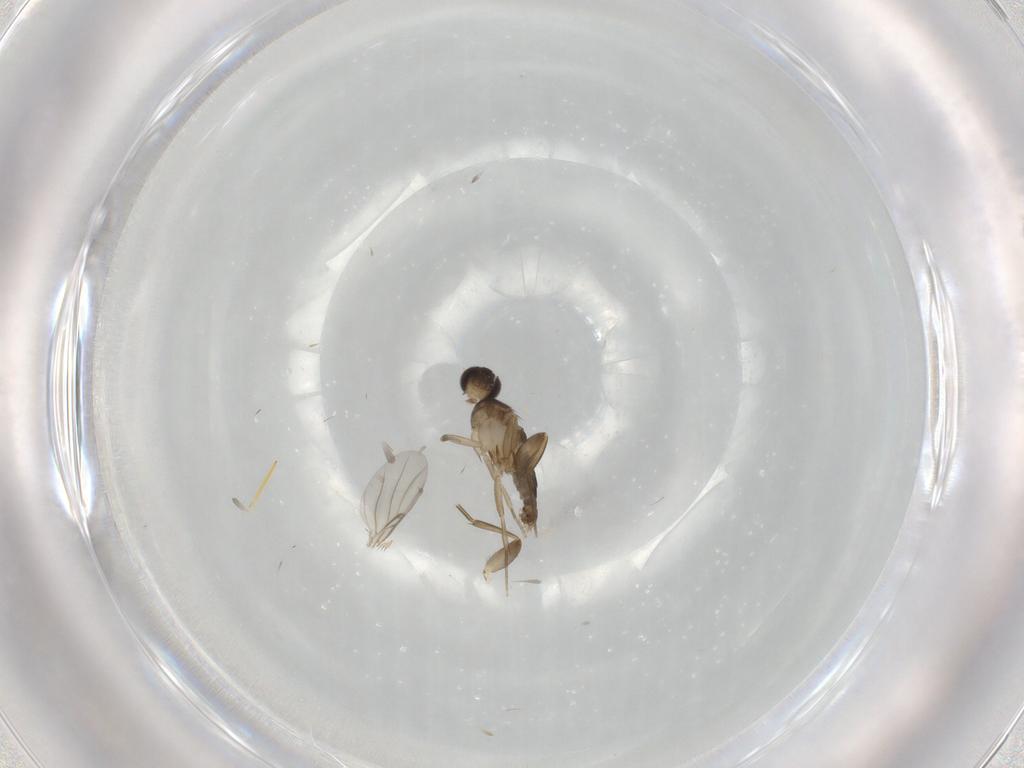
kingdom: Animalia
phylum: Arthropoda
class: Insecta
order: Diptera
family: Phoridae
